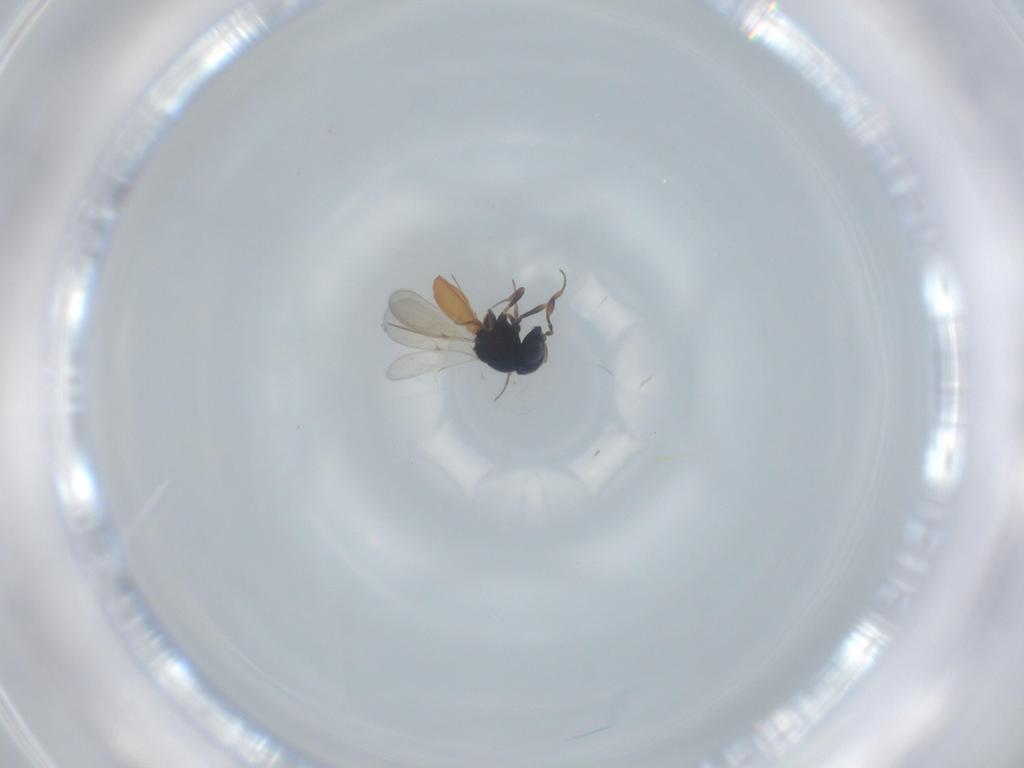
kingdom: Animalia
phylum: Arthropoda
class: Insecta
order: Hymenoptera
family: Scelionidae
